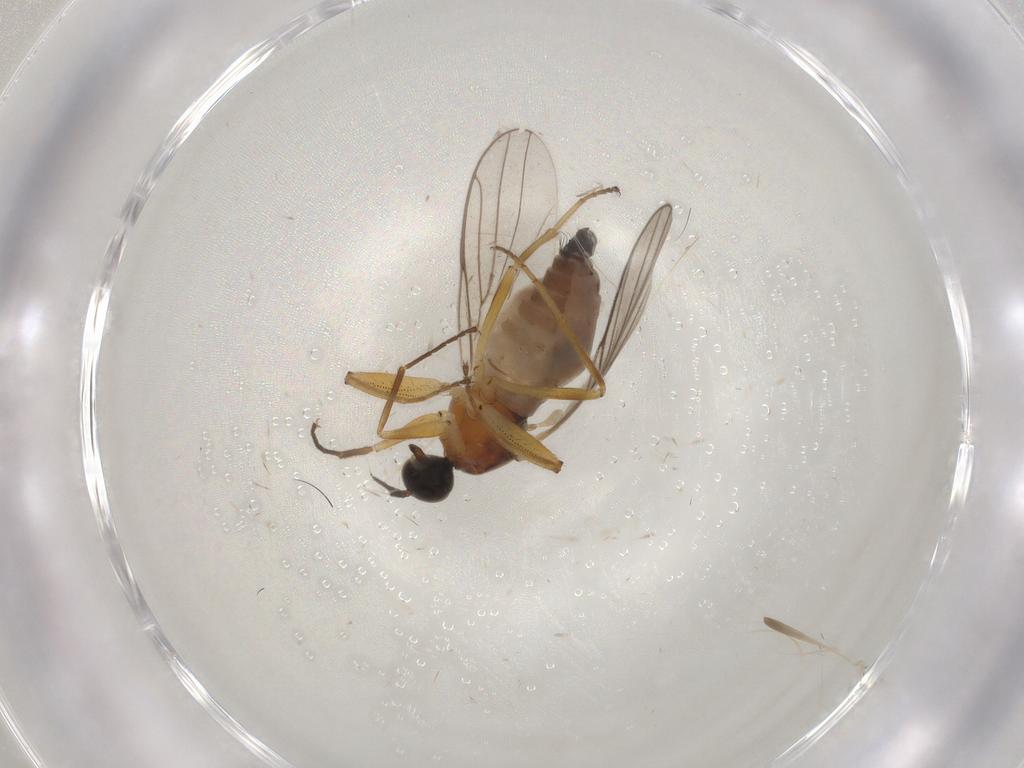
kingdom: Animalia
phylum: Arthropoda
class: Insecta
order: Diptera
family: Hybotidae
